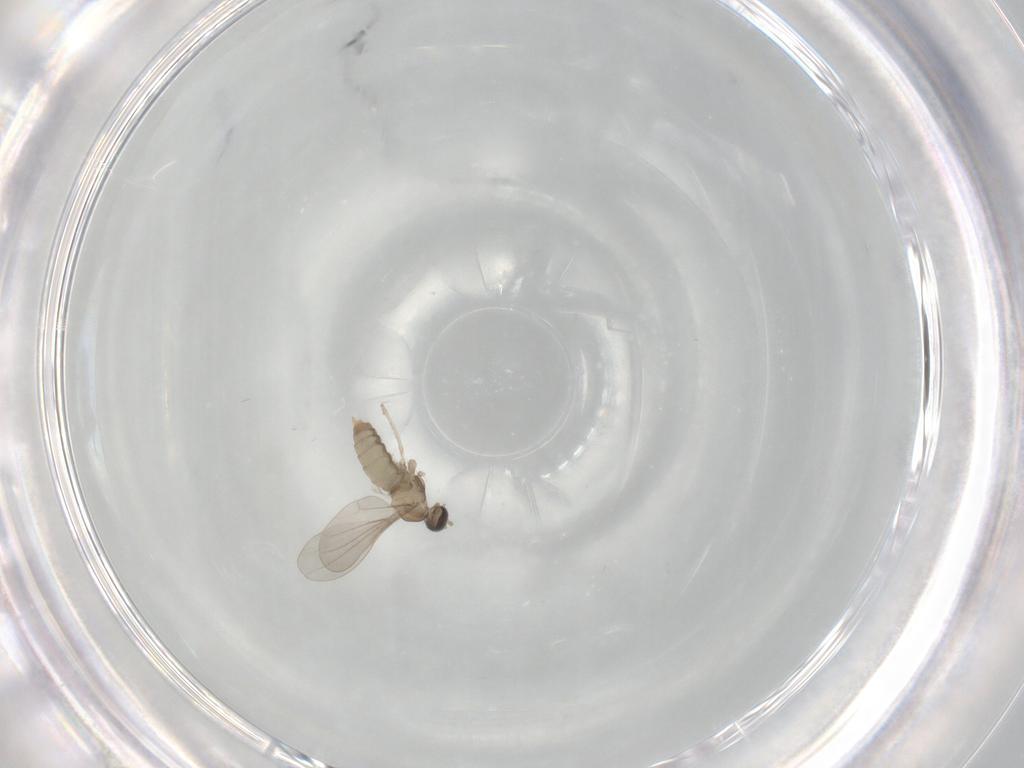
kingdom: Animalia
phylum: Arthropoda
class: Insecta
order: Diptera
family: Cecidomyiidae
